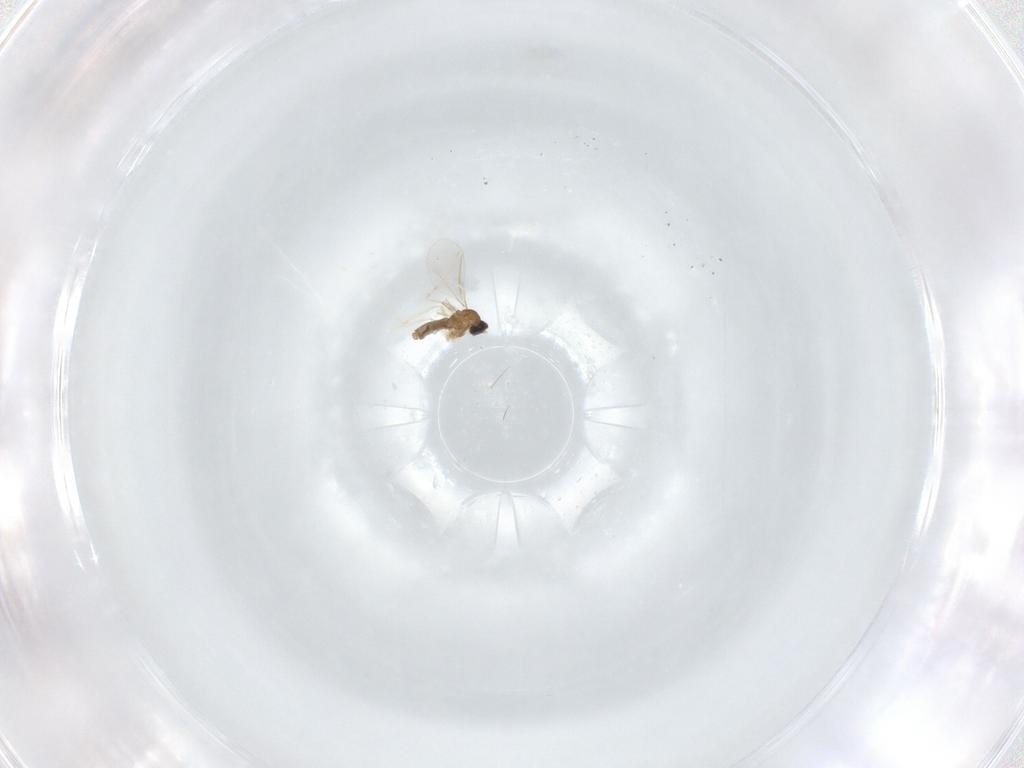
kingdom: Animalia
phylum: Arthropoda
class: Insecta
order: Diptera
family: Cecidomyiidae
